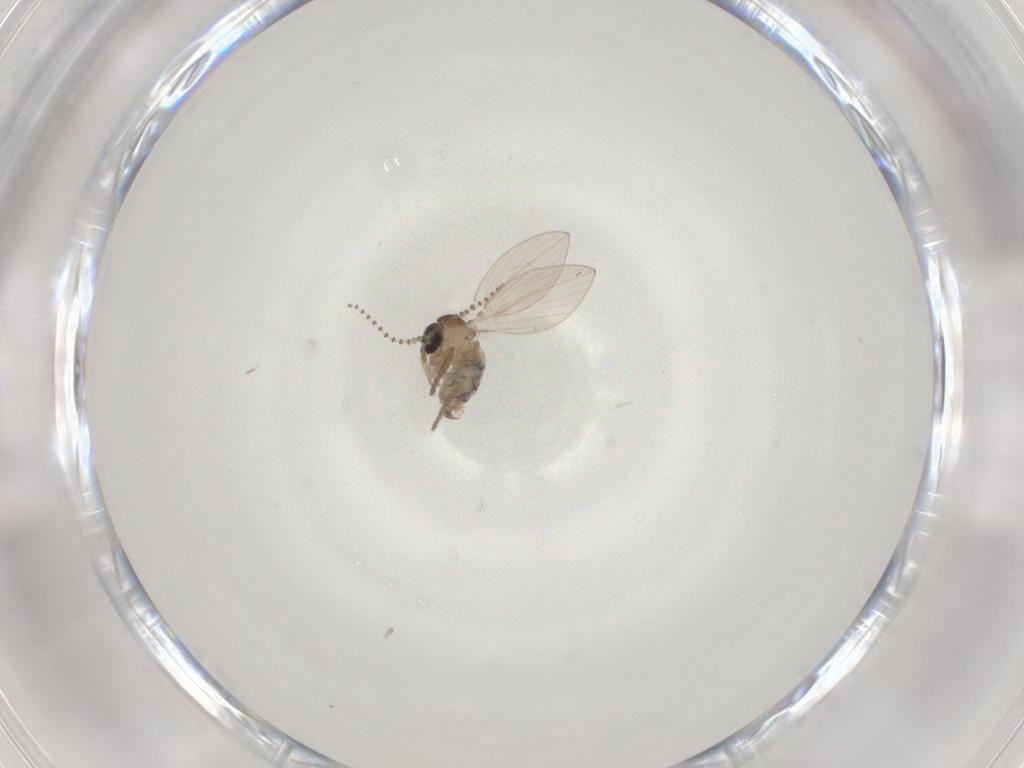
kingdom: Animalia
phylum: Arthropoda
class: Insecta
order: Diptera
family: Psychodidae
